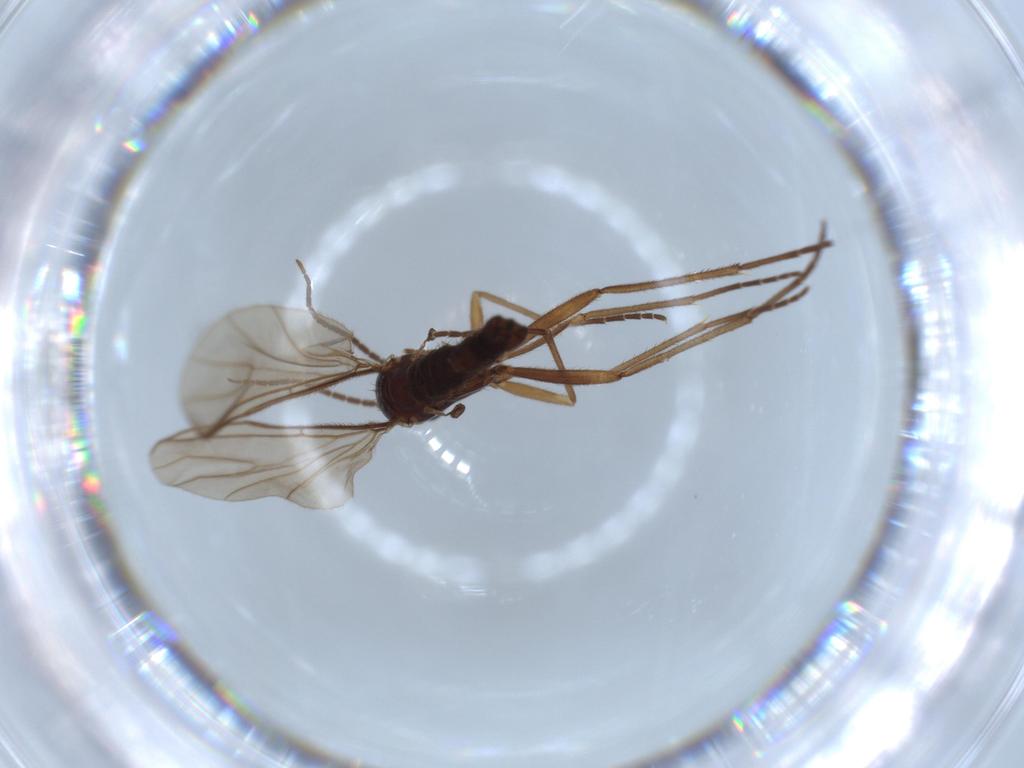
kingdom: Animalia
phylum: Arthropoda
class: Insecta
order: Diptera
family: Sciaridae
